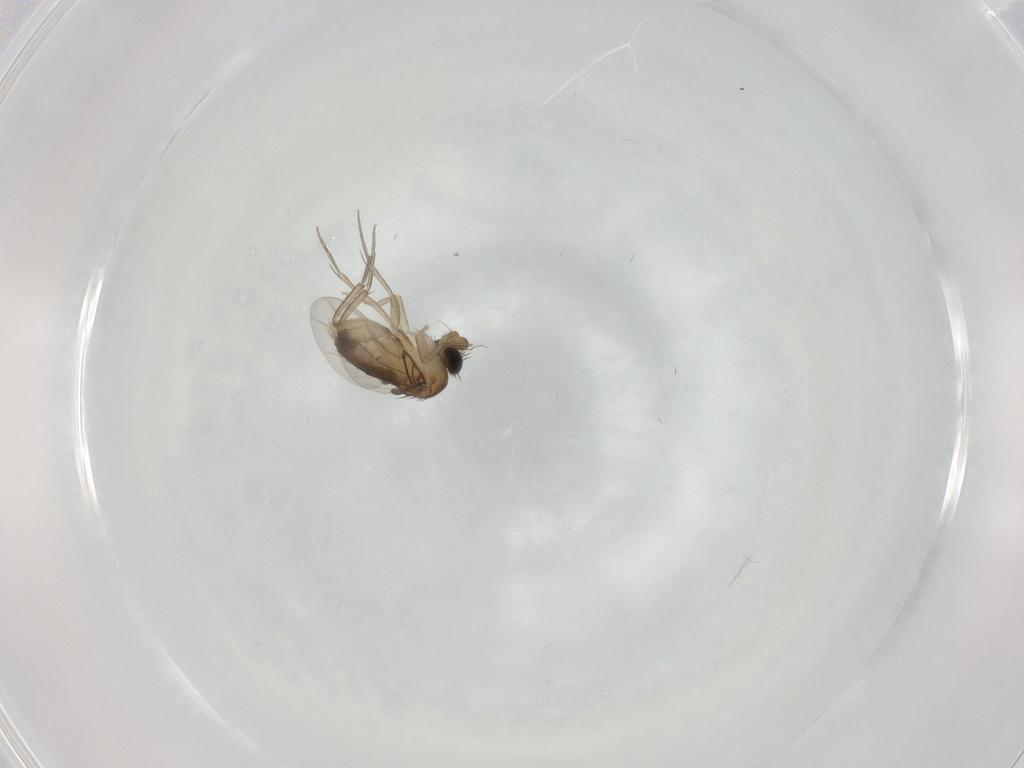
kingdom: Animalia
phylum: Arthropoda
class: Insecta
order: Diptera
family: Phoridae
